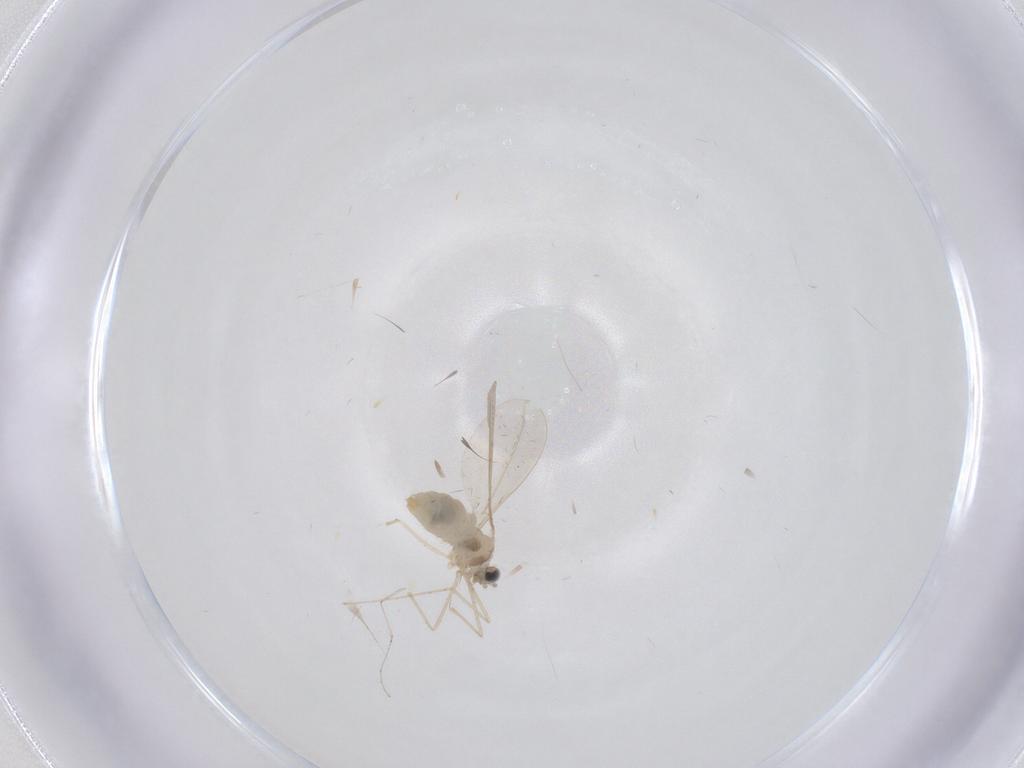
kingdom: Animalia
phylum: Arthropoda
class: Insecta
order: Diptera
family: Cecidomyiidae
